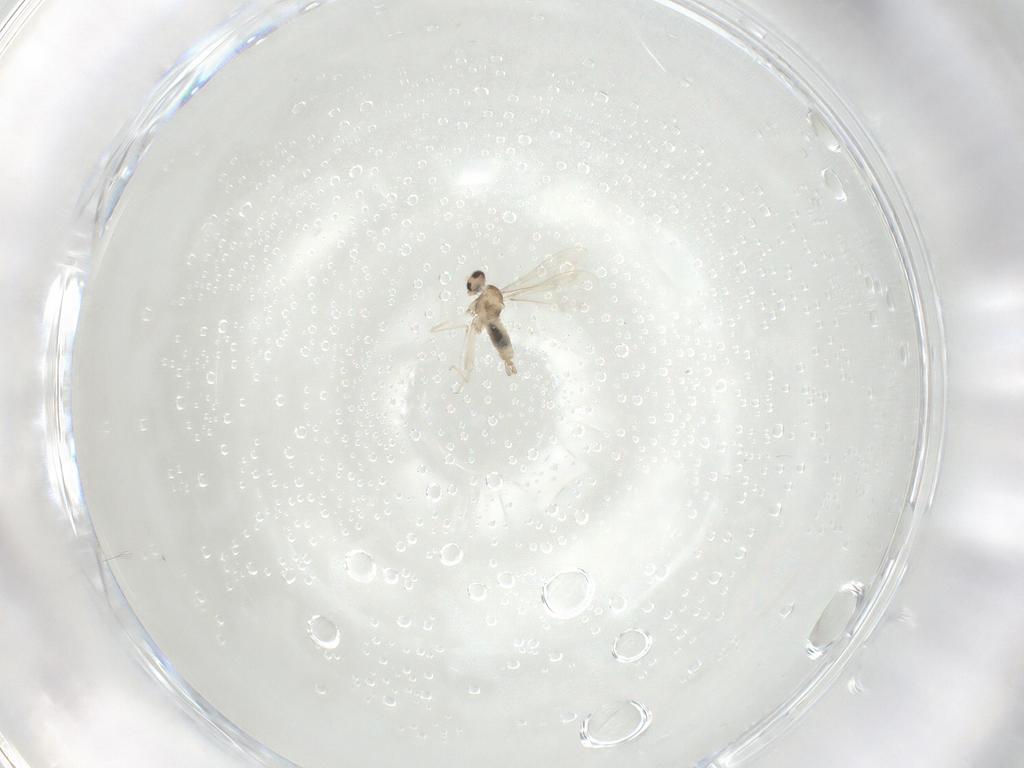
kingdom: Animalia
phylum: Arthropoda
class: Insecta
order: Diptera
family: Cecidomyiidae
